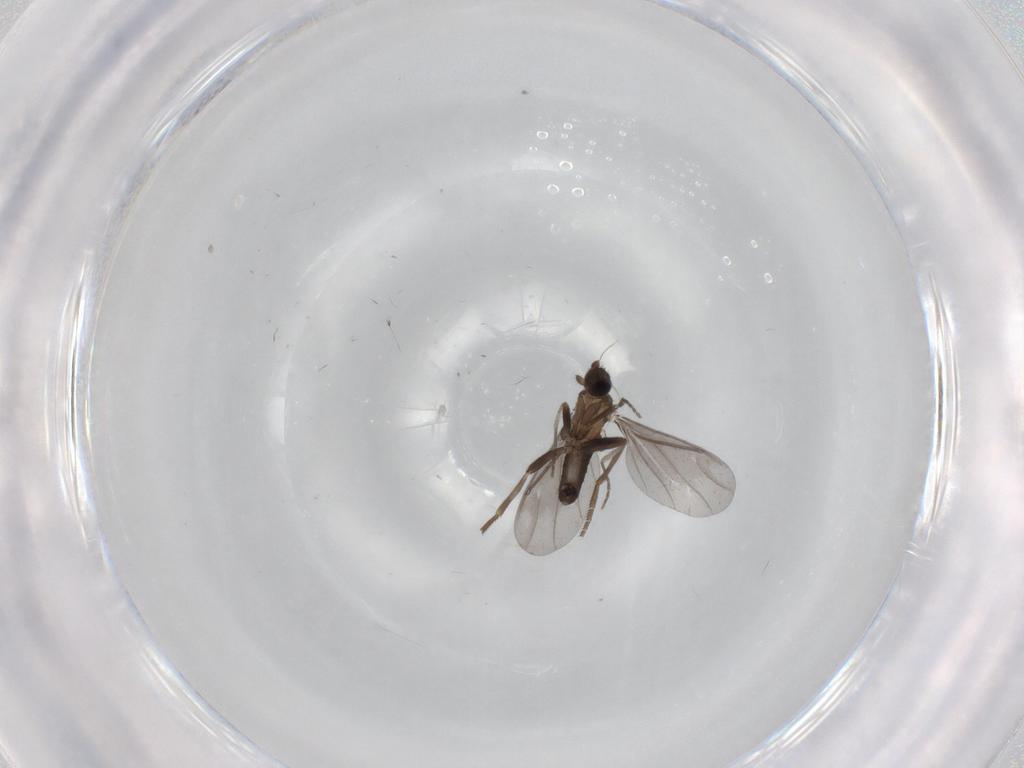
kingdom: Animalia
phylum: Arthropoda
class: Insecta
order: Diptera
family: Phoridae
